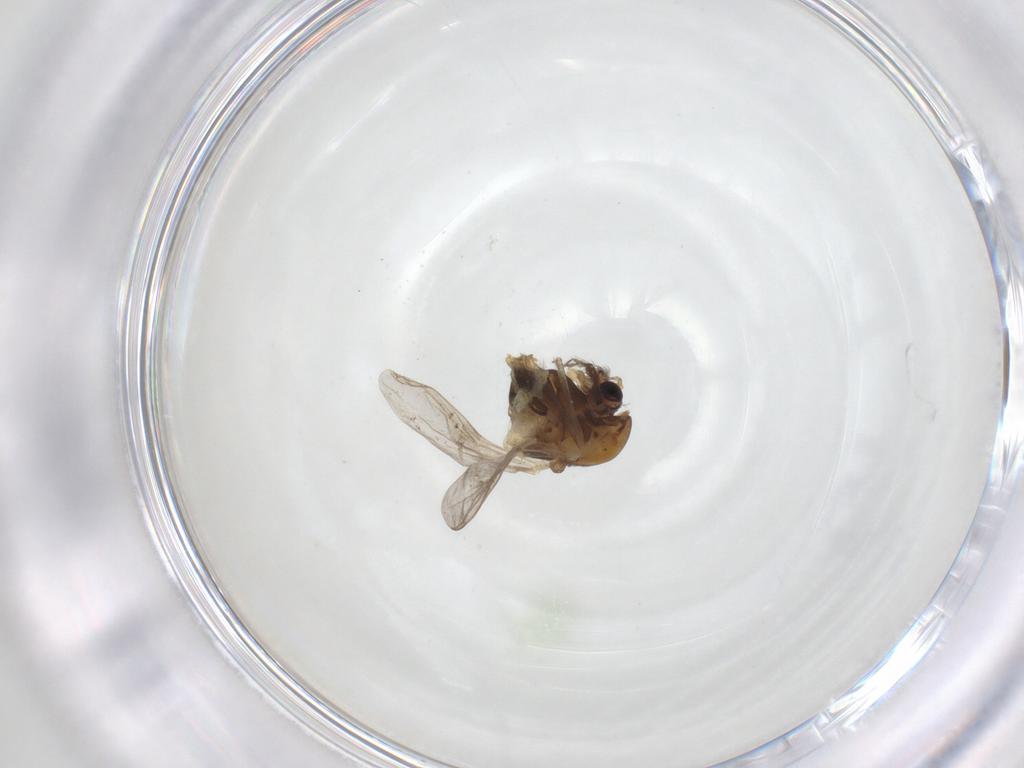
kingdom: Animalia
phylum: Arthropoda
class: Insecta
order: Diptera
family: Chironomidae
